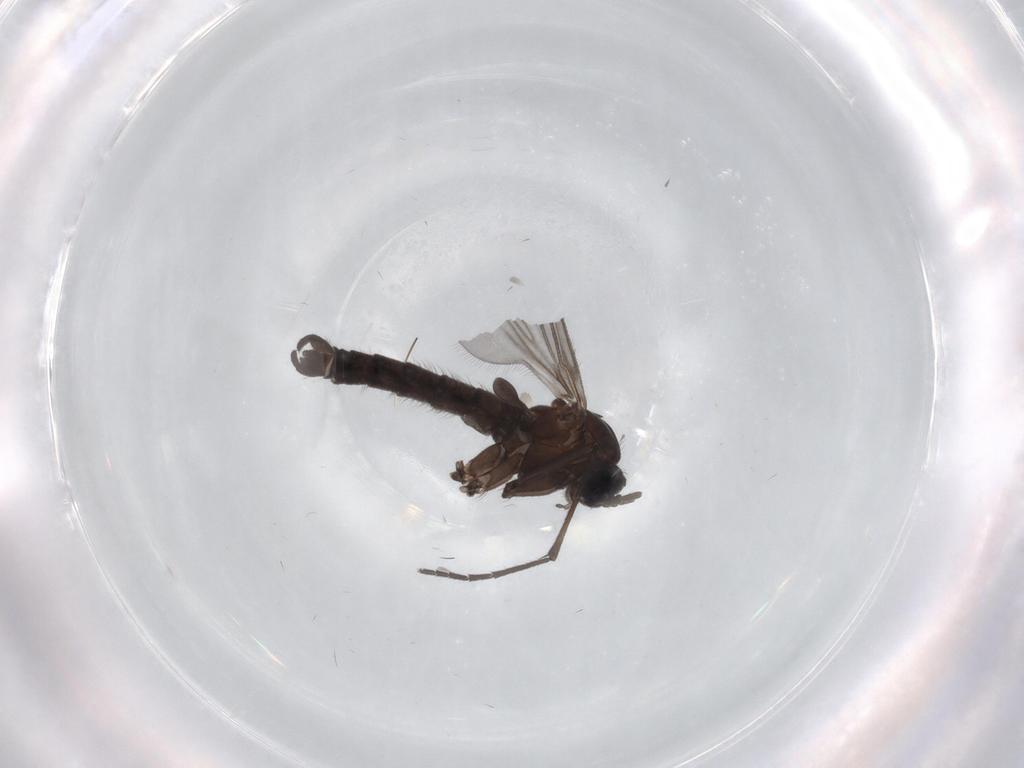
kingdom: Animalia
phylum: Arthropoda
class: Insecta
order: Diptera
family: Sciaridae
